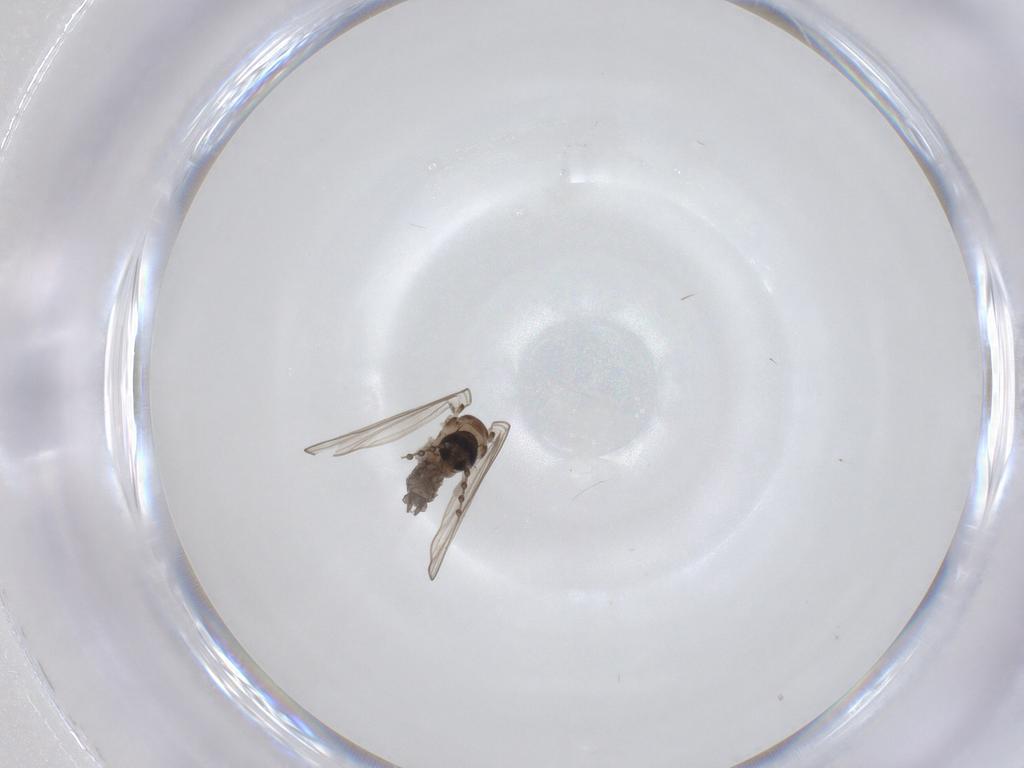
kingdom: Animalia
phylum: Arthropoda
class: Insecta
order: Diptera
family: Psychodidae
